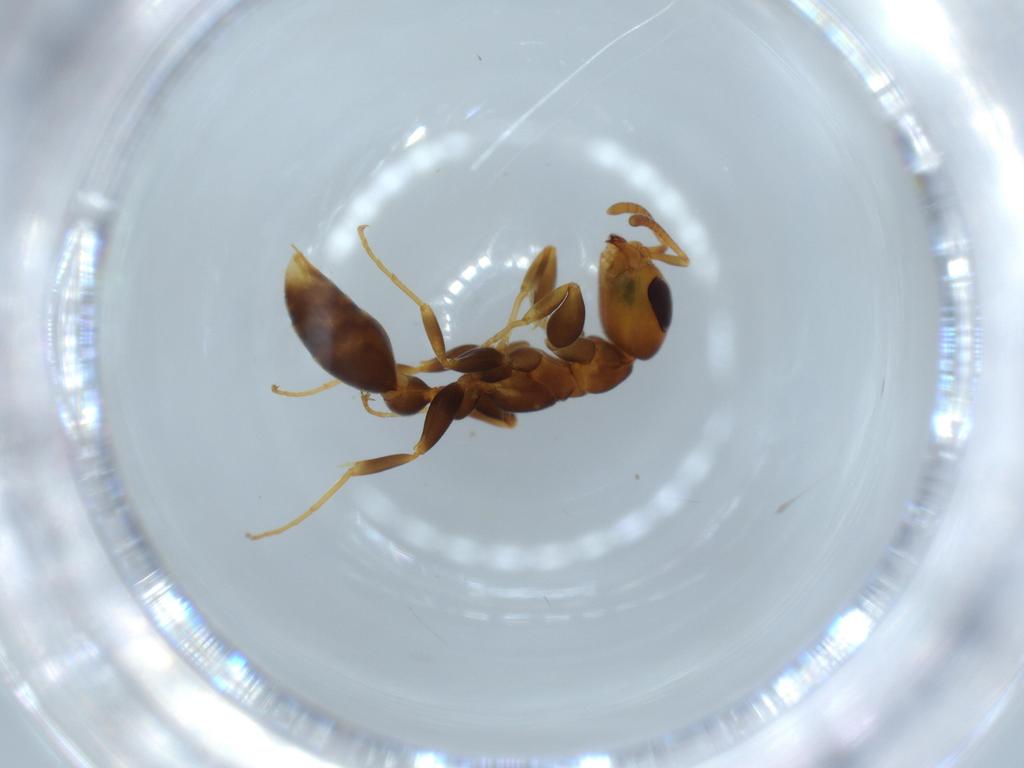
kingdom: Animalia
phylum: Arthropoda
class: Insecta
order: Hymenoptera
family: Formicidae
